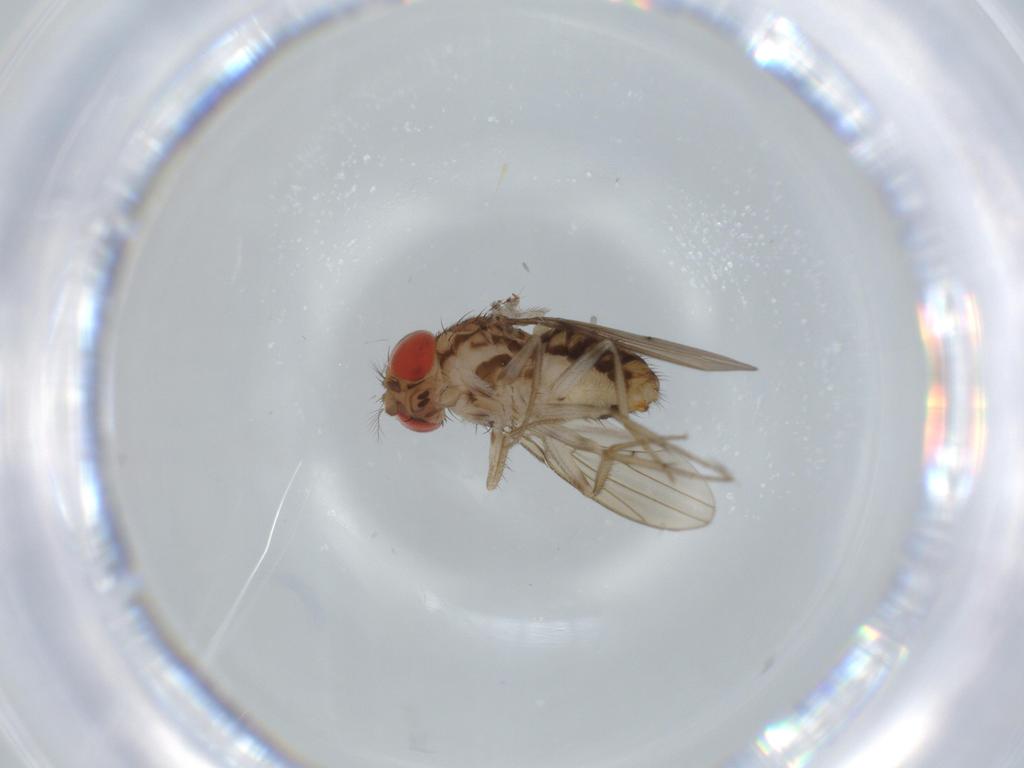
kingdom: Animalia
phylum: Arthropoda
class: Insecta
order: Diptera
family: Drosophilidae
